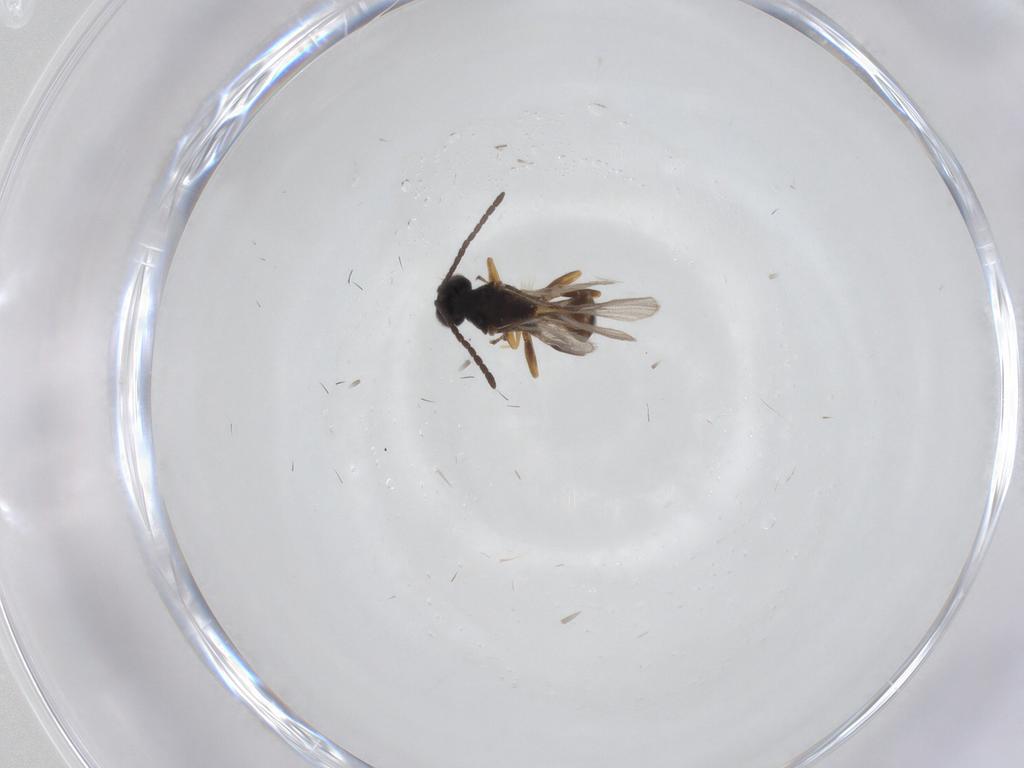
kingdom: Animalia
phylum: Arthropoda
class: Insecta
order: Hymenoptera
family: Braconidae
